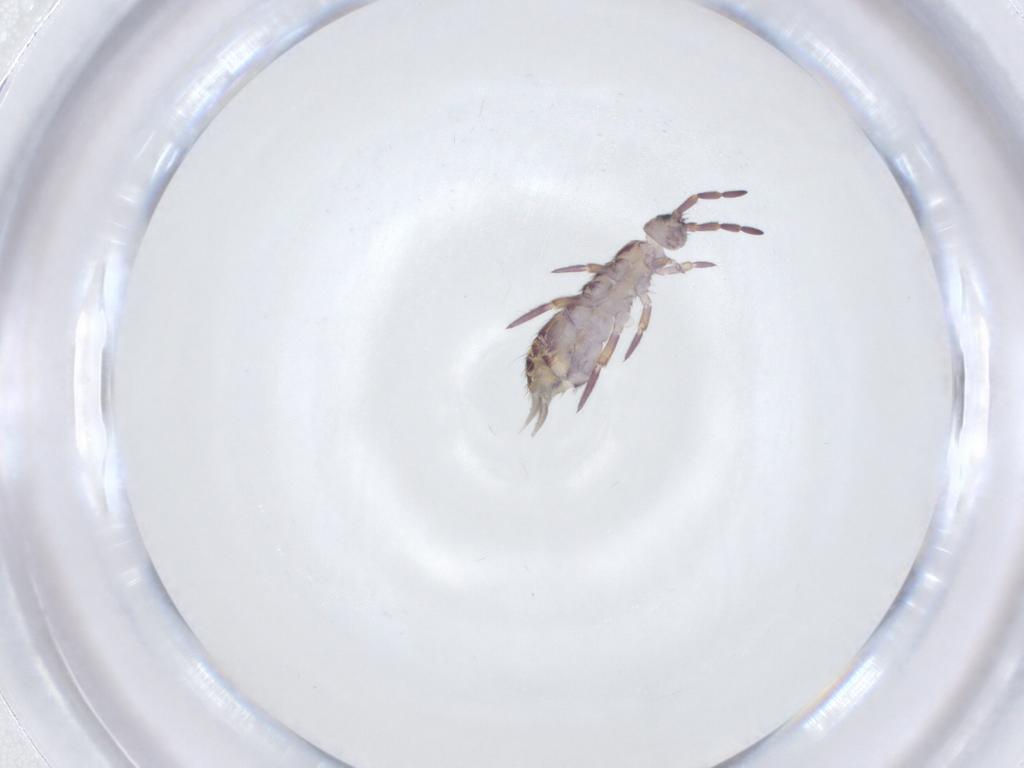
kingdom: Animalia
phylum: Arthropoda
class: Collembola
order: Entomobryomorpha
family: Isotomidae
